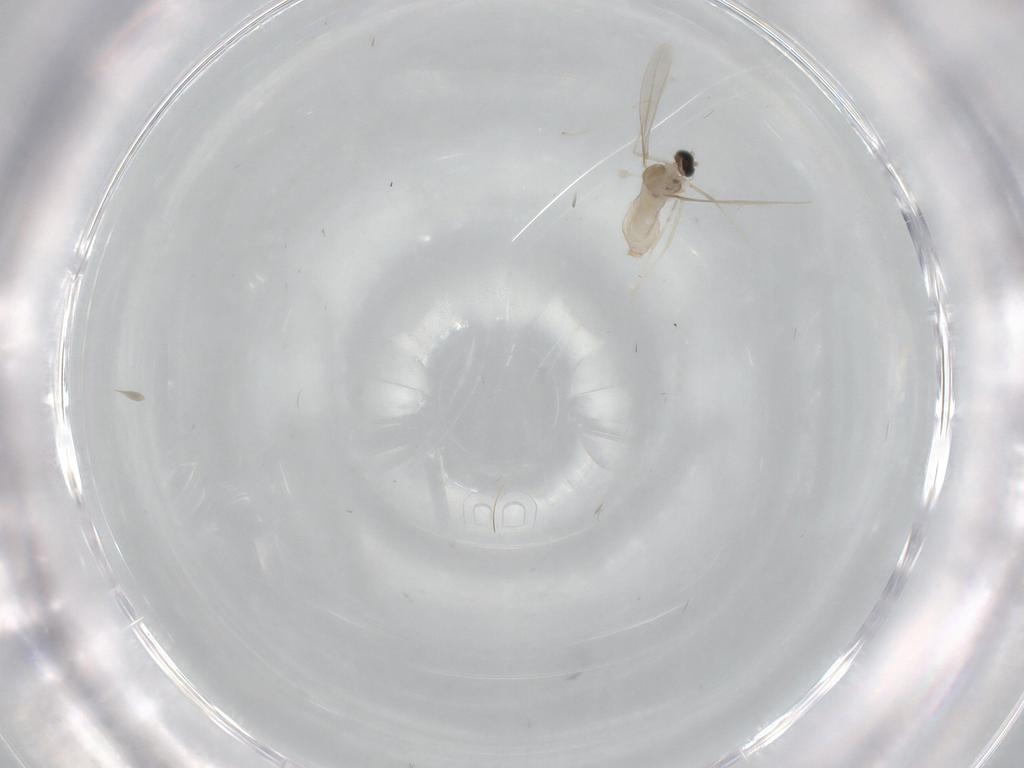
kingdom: Animalia
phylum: Arthropoda
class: Insecta
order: Diptera
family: Cecidomyiidae
